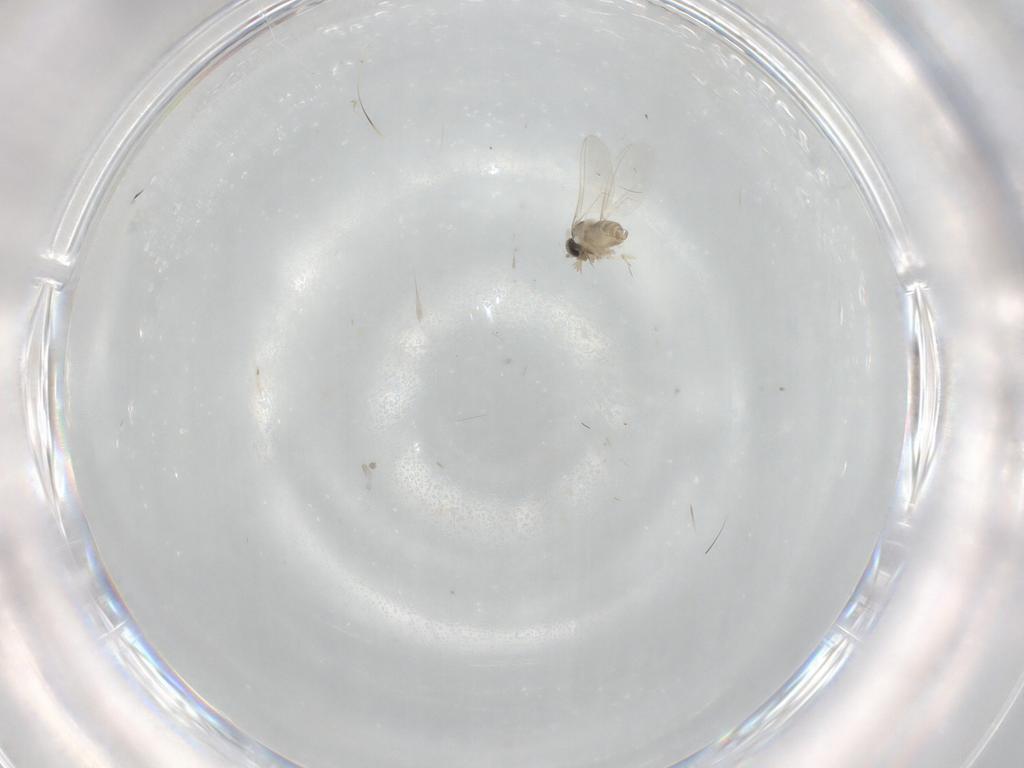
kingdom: Animalia
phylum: Arthropoda
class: Insecta
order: Diptera
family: Cecidomyiidae
